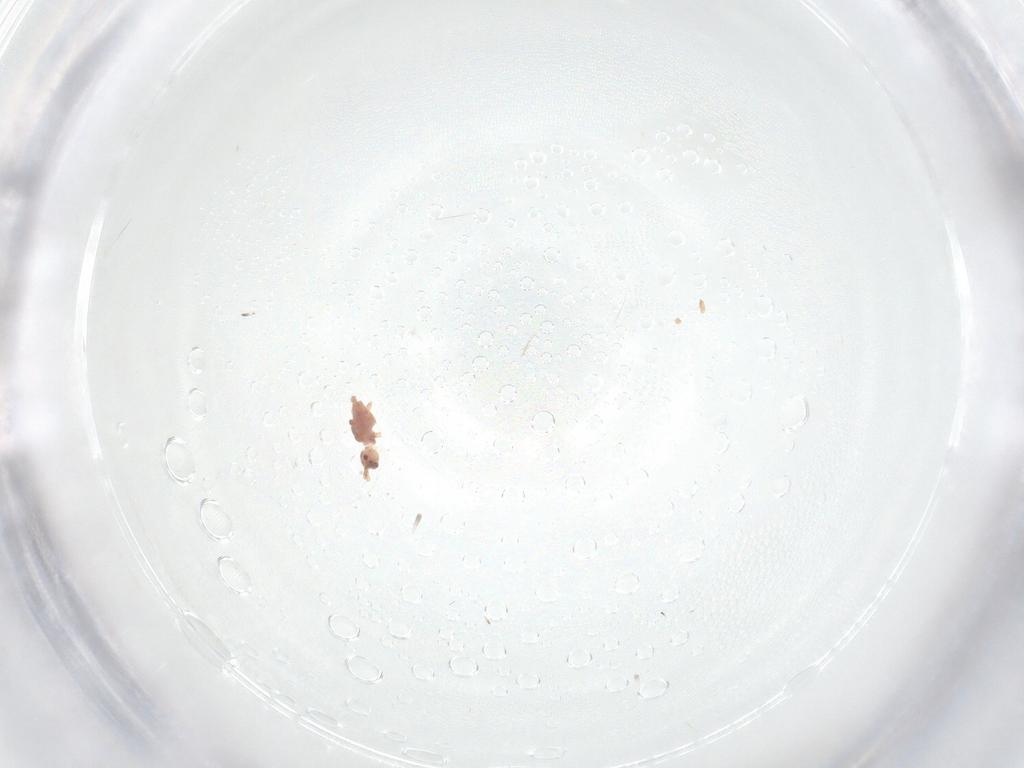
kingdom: Animalia
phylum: Arthropoda
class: Insecta
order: Hymenoptera
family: Braconidae
